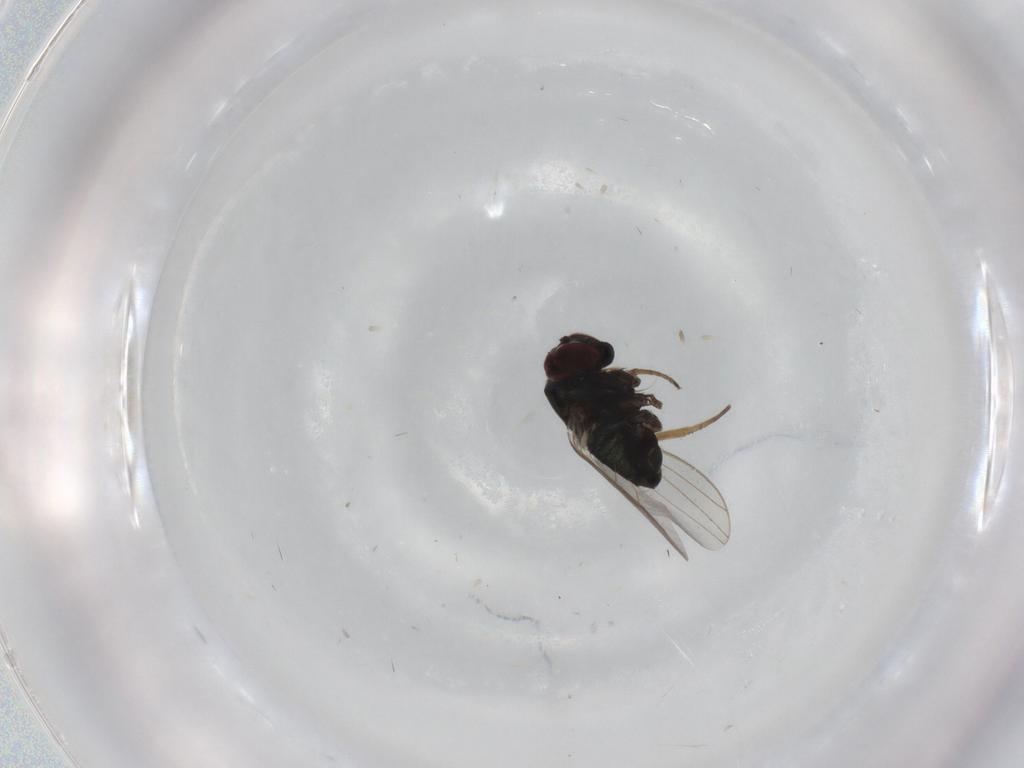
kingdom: Animalia
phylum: Arthropoda
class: Insecta
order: Diptera
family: Dolichopodidae
